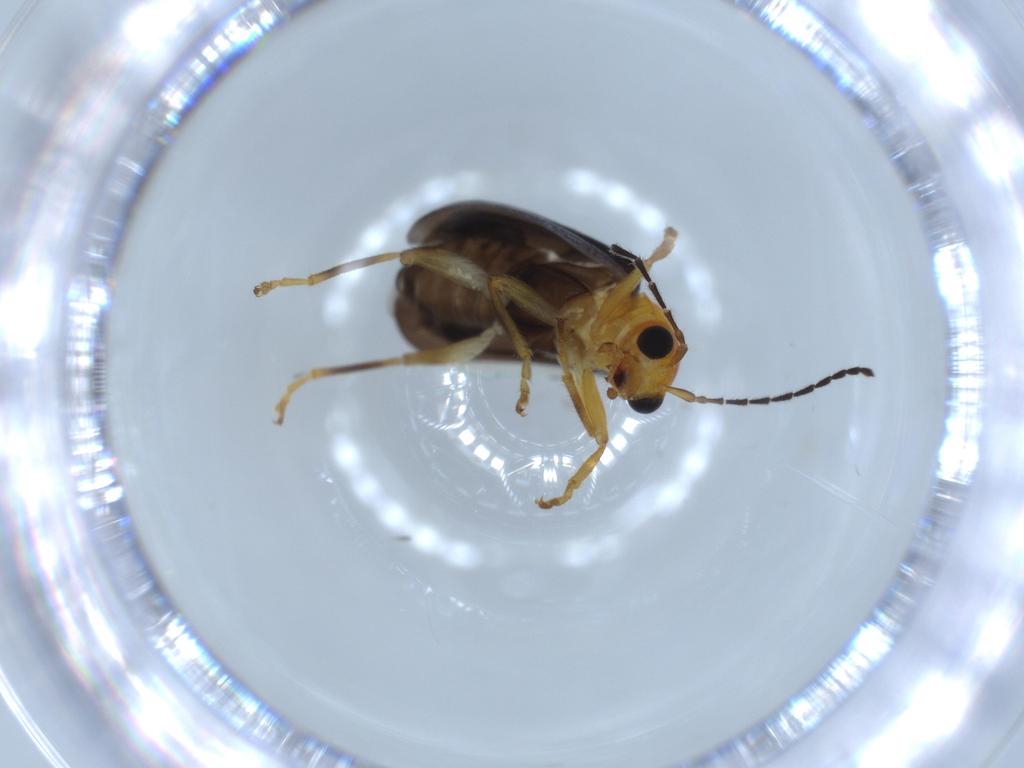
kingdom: Animalia
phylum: Arthropoda
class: Insecta
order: Coleoptera
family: Chrysomelidae
